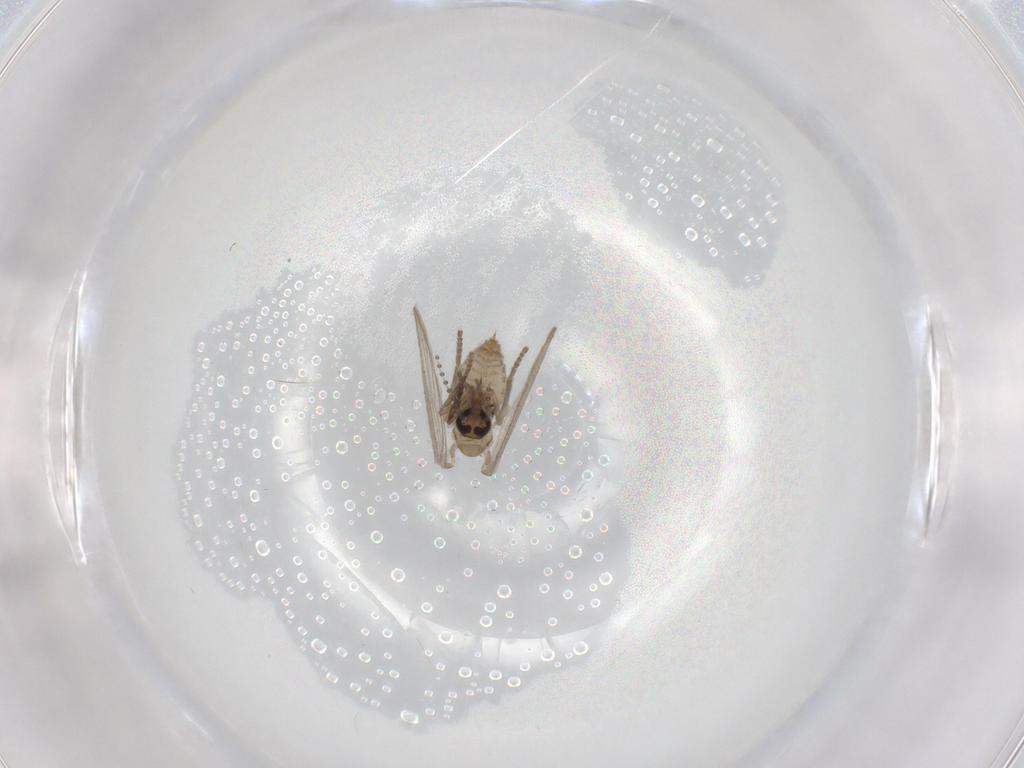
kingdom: Animalia
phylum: Arthropoda
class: Insecta
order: Diptera
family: Psychodidae
